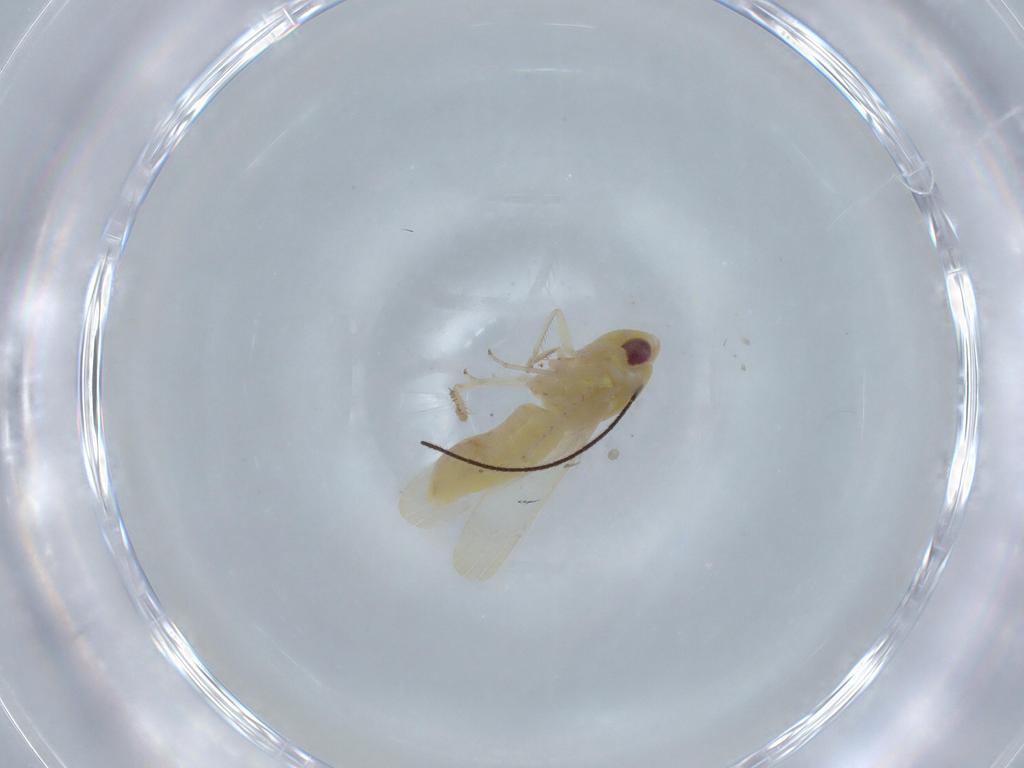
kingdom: Animalia
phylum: Arthropoda
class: Insecta
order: Hemiptera
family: Cicadellidae
